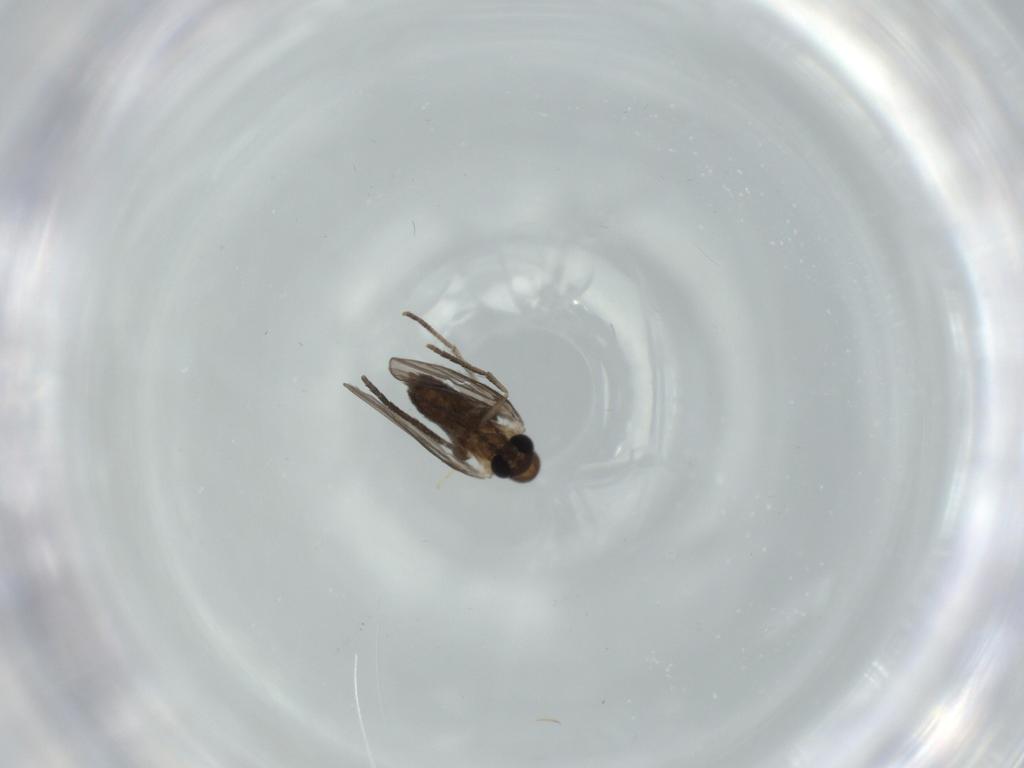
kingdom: Animalia
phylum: Arthropoda
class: Insecta
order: Diptera
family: Psychodidae
